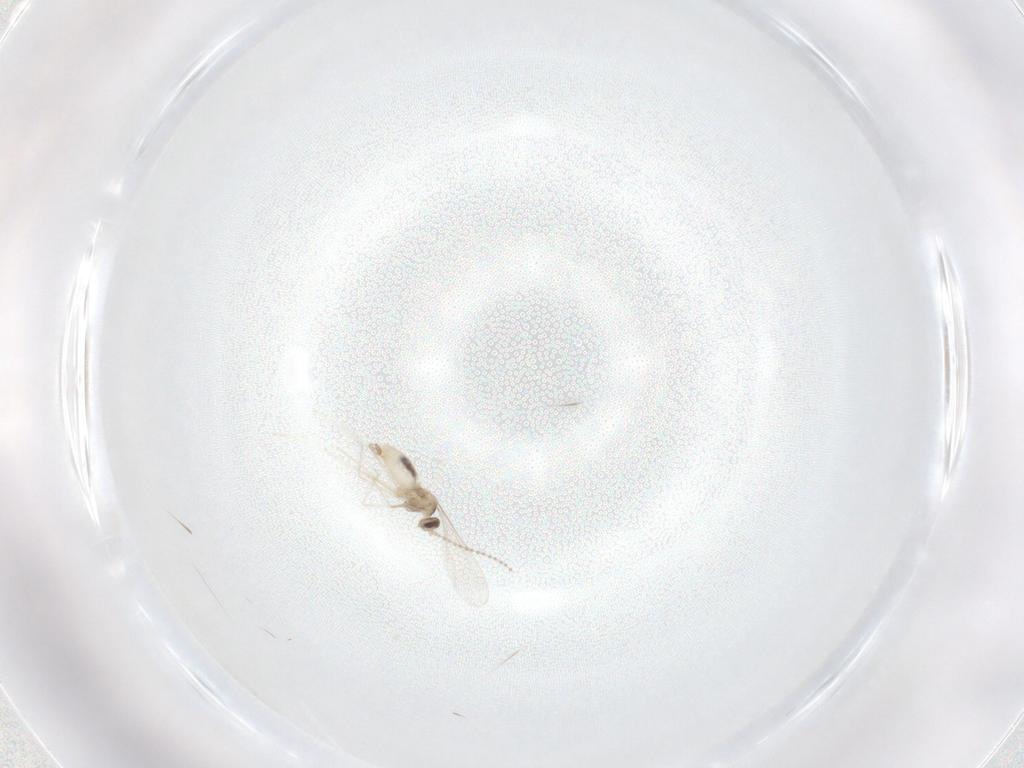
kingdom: Animalia
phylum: Arthropoda
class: Insecta
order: Diptera
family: Cecidomyiidae
